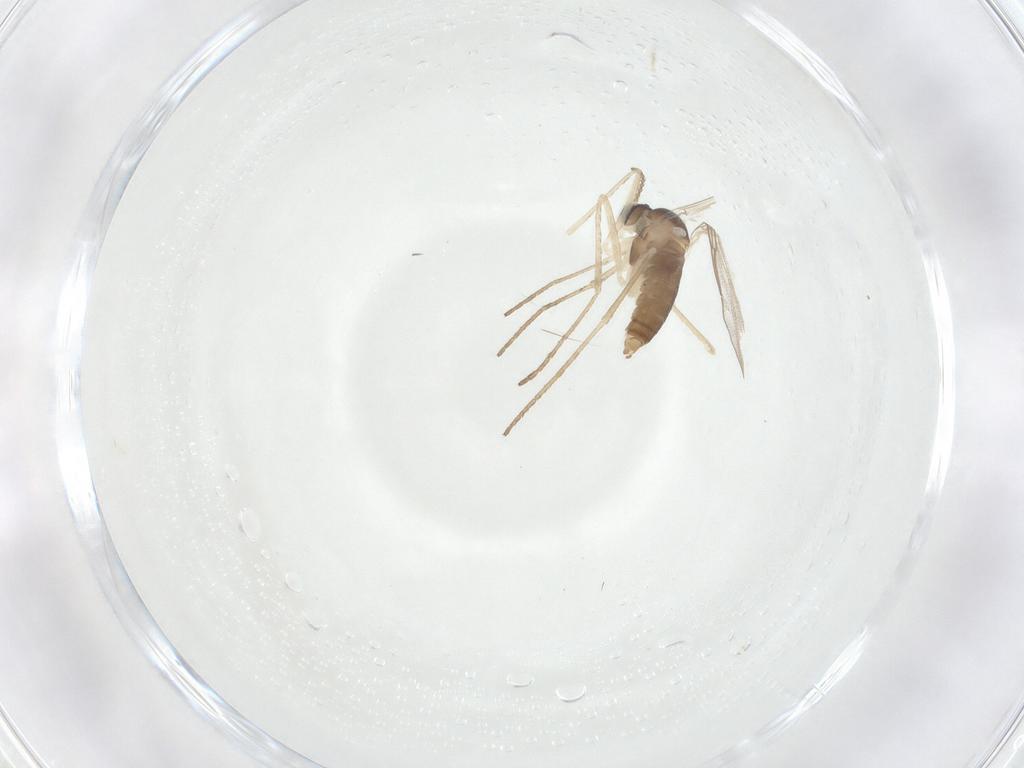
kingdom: Animalia
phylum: Arthropoda
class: Insecta
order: Diptera
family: Cecidomyiidae
